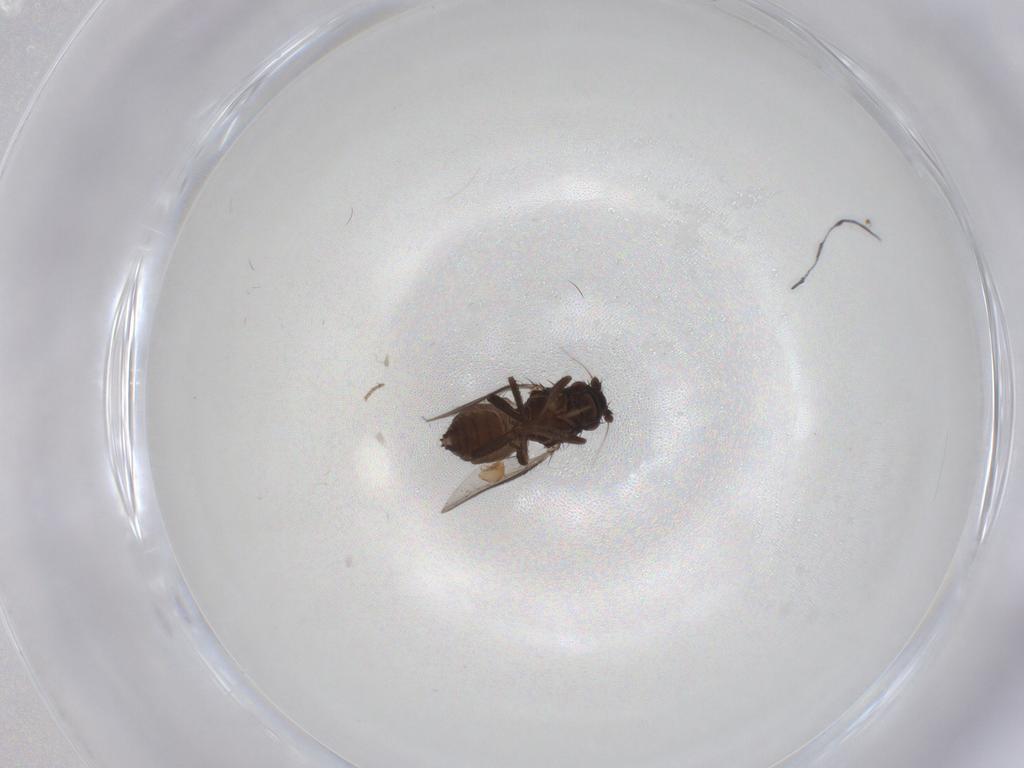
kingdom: Animalia
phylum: Arthropoda
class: Insecta
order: Diptera
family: Sphaeroceridae
